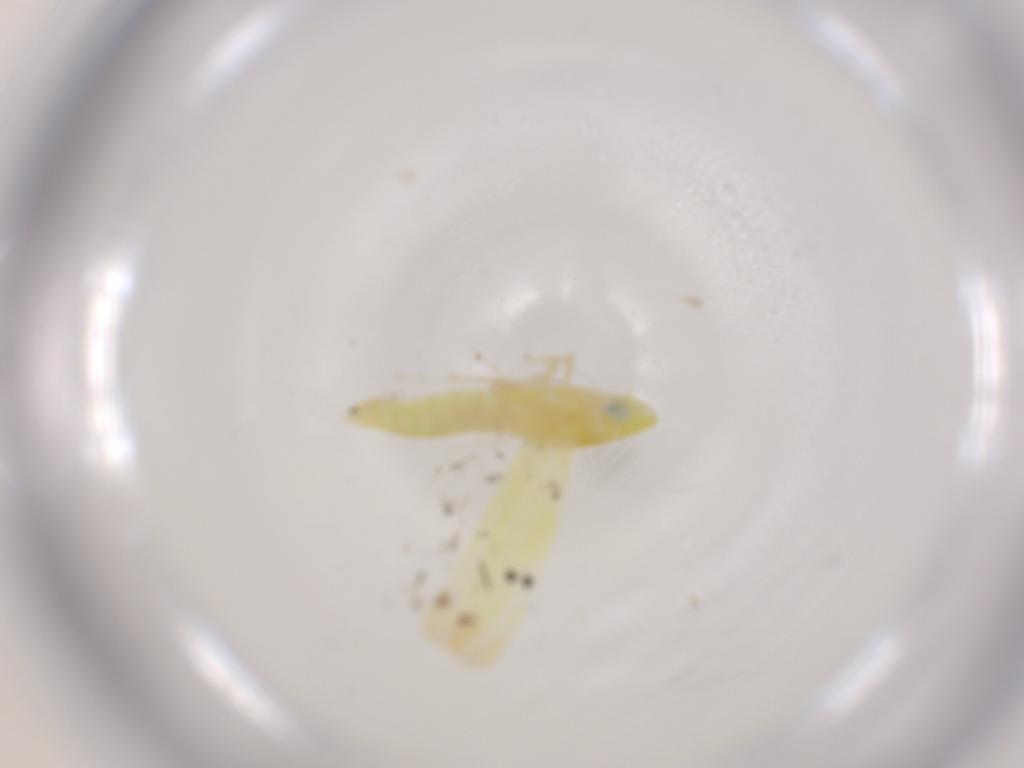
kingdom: Animalia
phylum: Arthropoda
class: Insecta
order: Hemiptera
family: Cicadellidae
